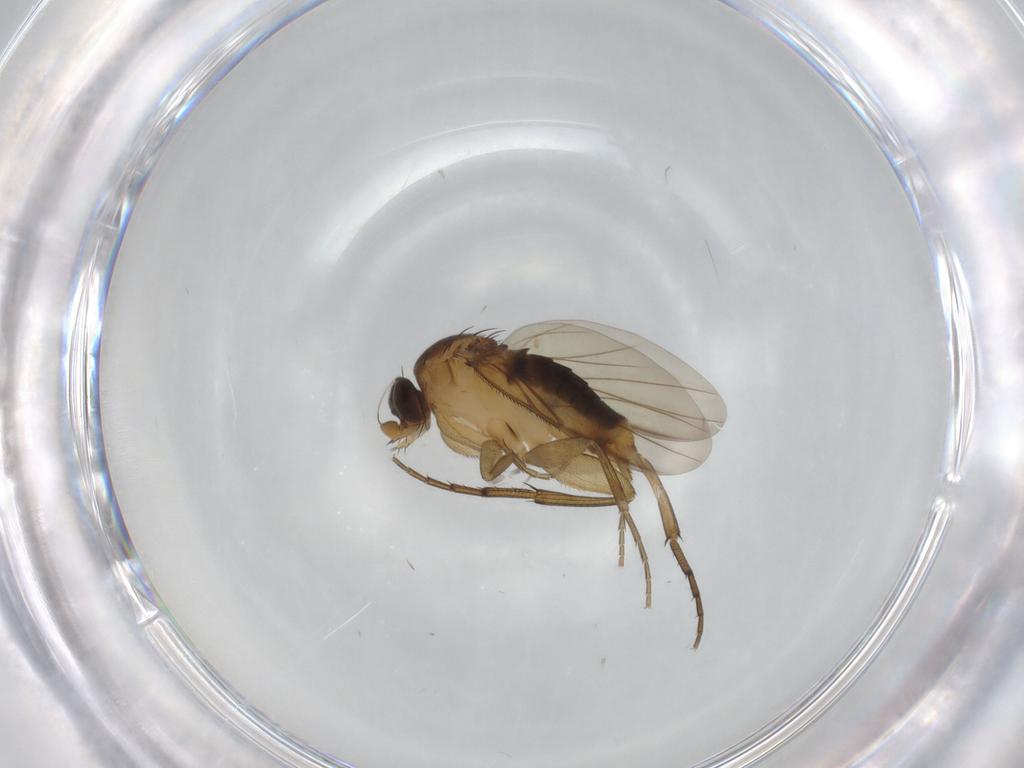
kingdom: Animalia
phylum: Arthropoda
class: Insecta
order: Diptera
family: Phoridae
